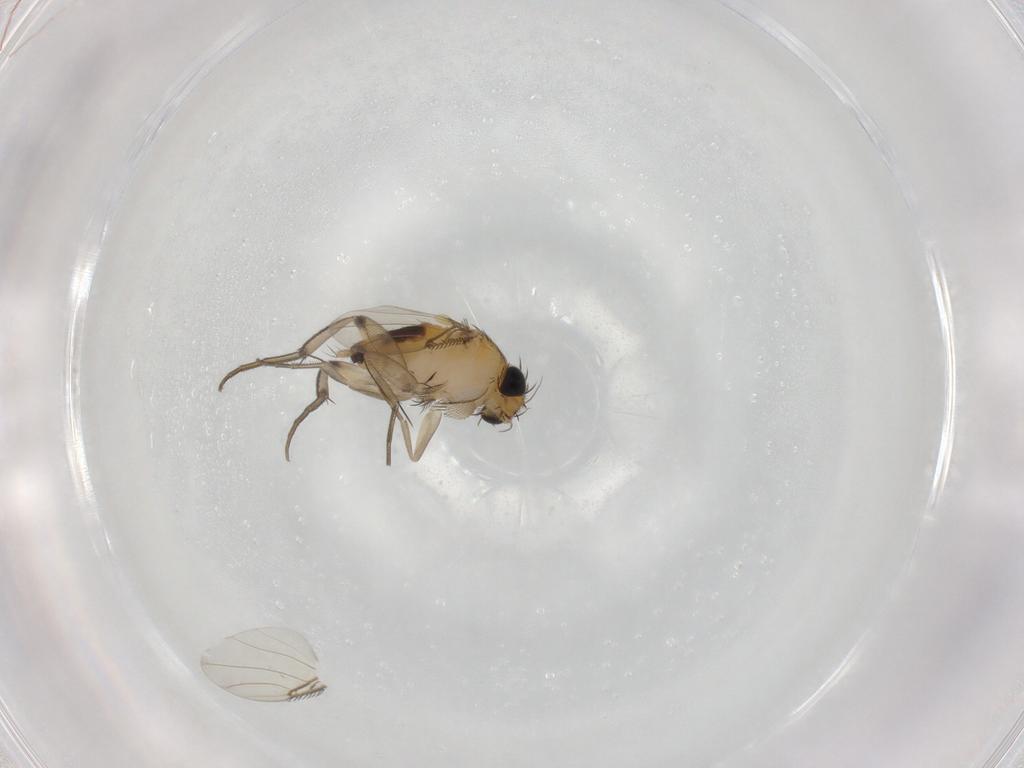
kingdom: Animalia
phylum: Arthropoda
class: Insecta
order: Diptera
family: Phoridae
